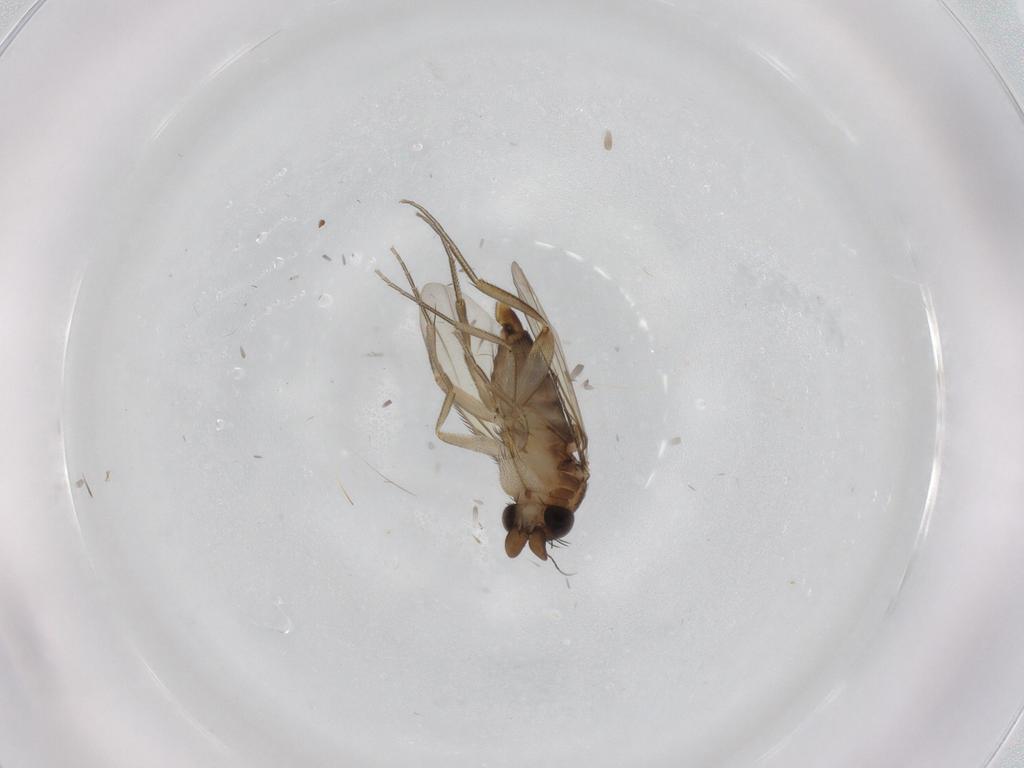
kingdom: Animalia
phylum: Arthropoda
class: Insecta
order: Diptera
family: Phoridae
